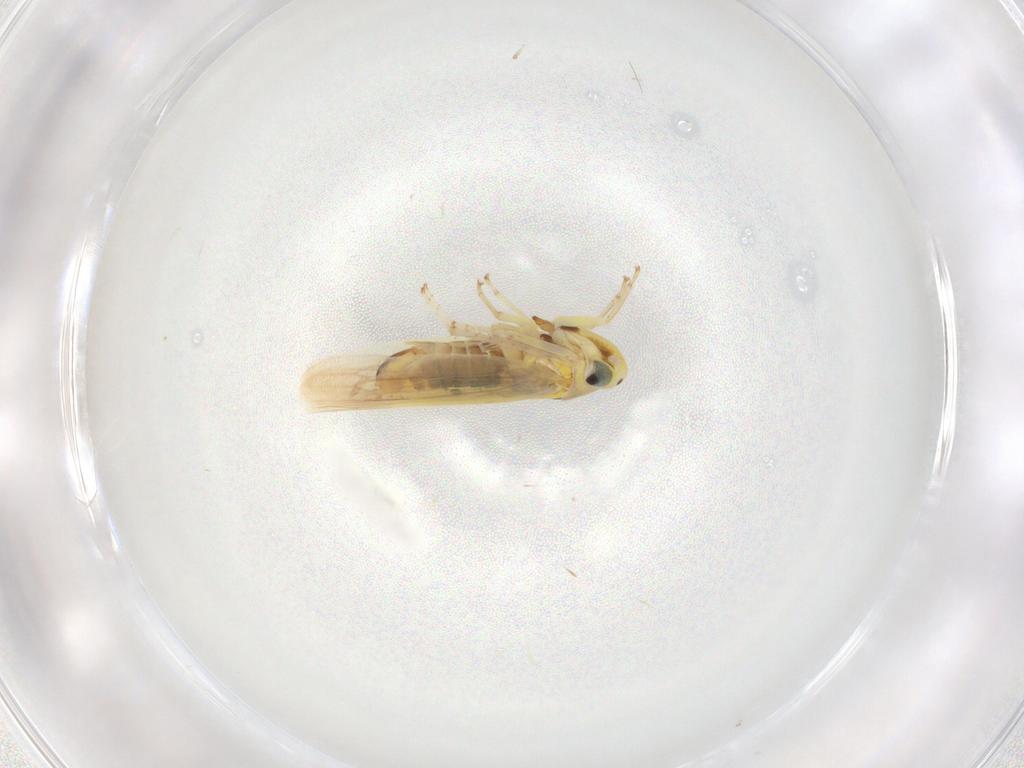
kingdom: Animalia
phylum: Arthropoda
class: Insecta
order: Hemiptera
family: Cicadellidae
